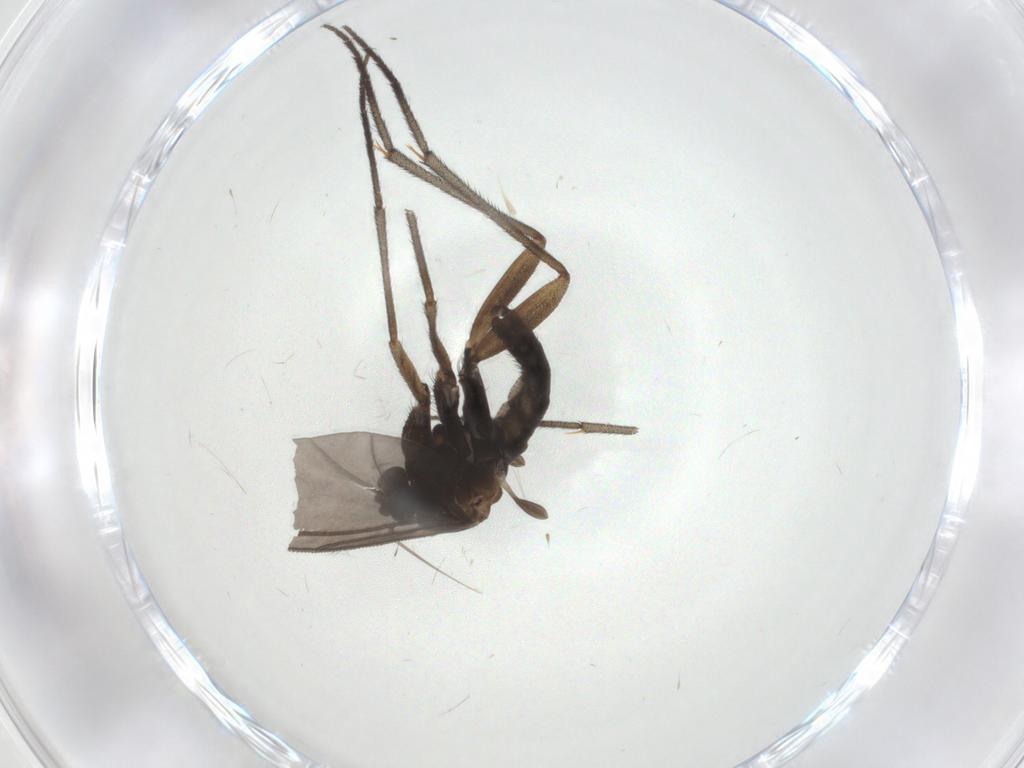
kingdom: Animalia
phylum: Arthropoda
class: Insecta
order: Diptera
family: Sciaridae
